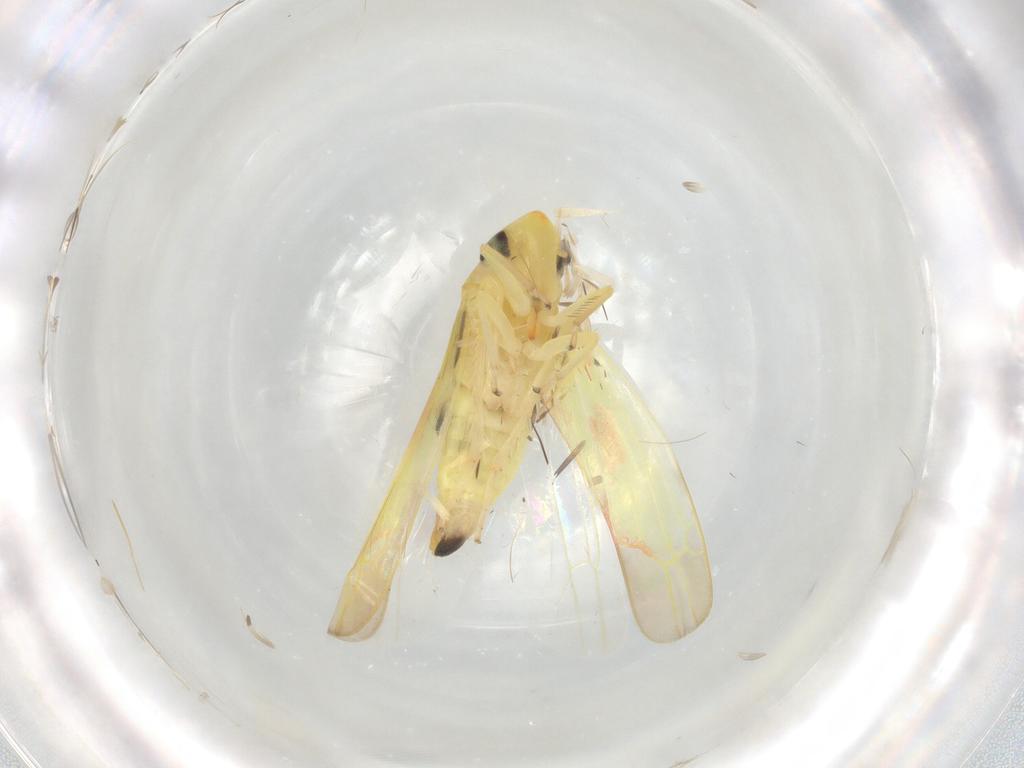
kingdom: Animalia
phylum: Arthropoda
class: Insecta
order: Hemiptera
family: Cicadellidae
